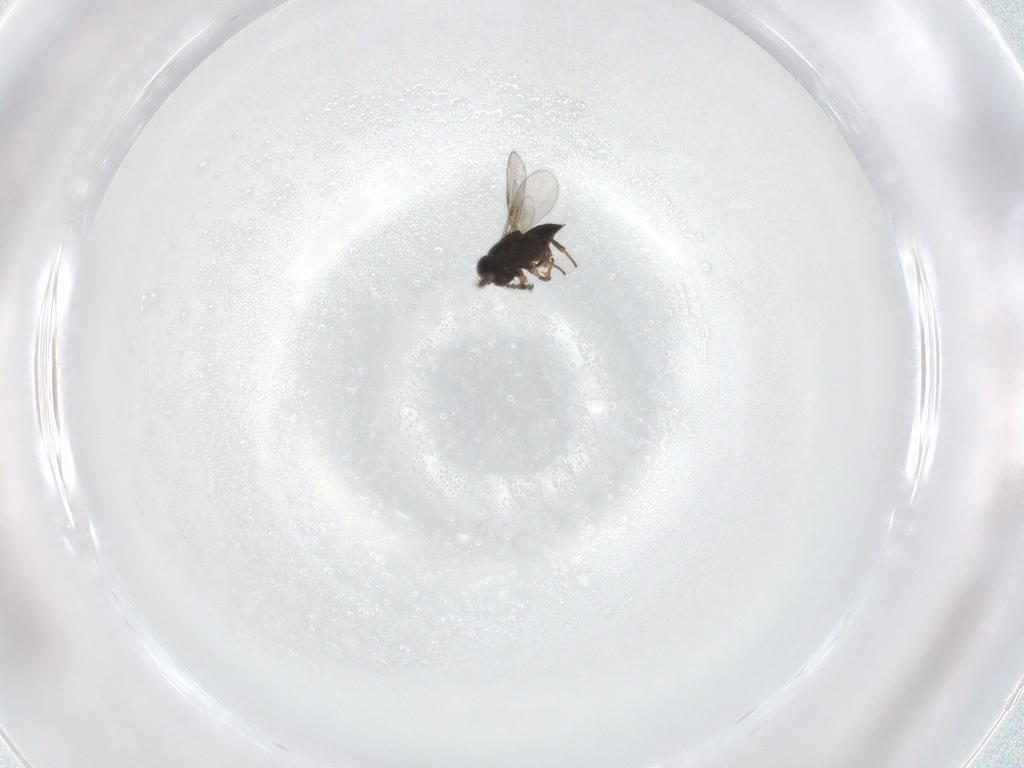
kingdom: Animalia
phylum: Arthropoda
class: Insecta
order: Hymenoptera
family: Encyrtidae
